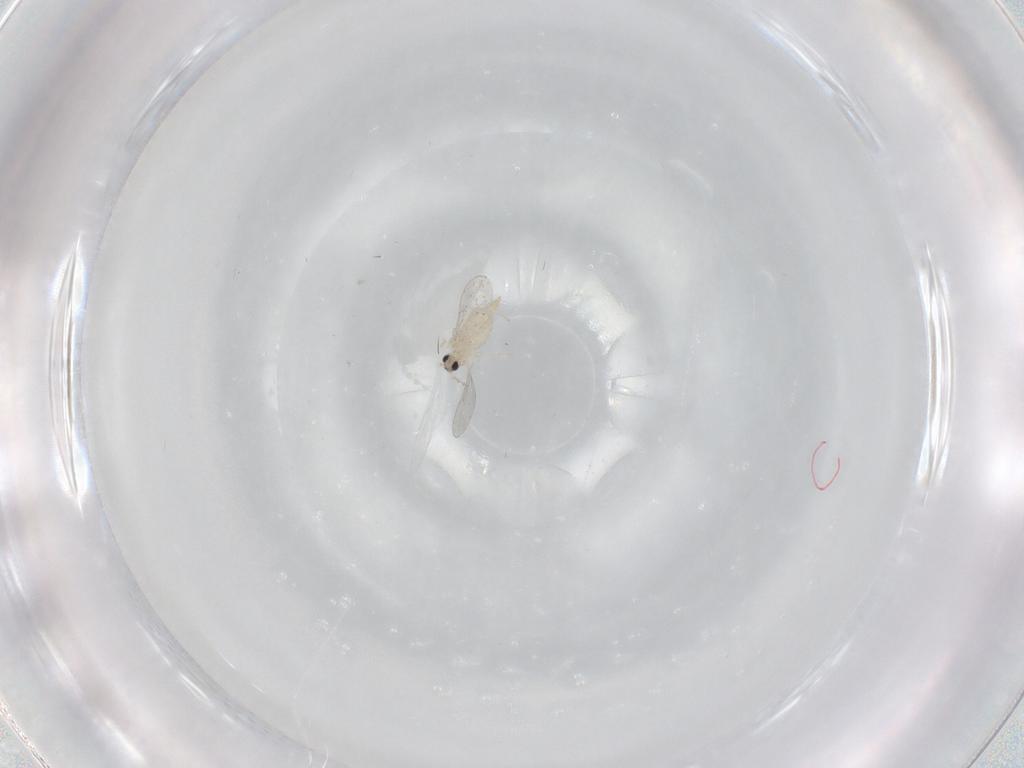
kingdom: Animalia
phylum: Arthropoda
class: Insecta
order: Diptera
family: Cecidomyiidae
